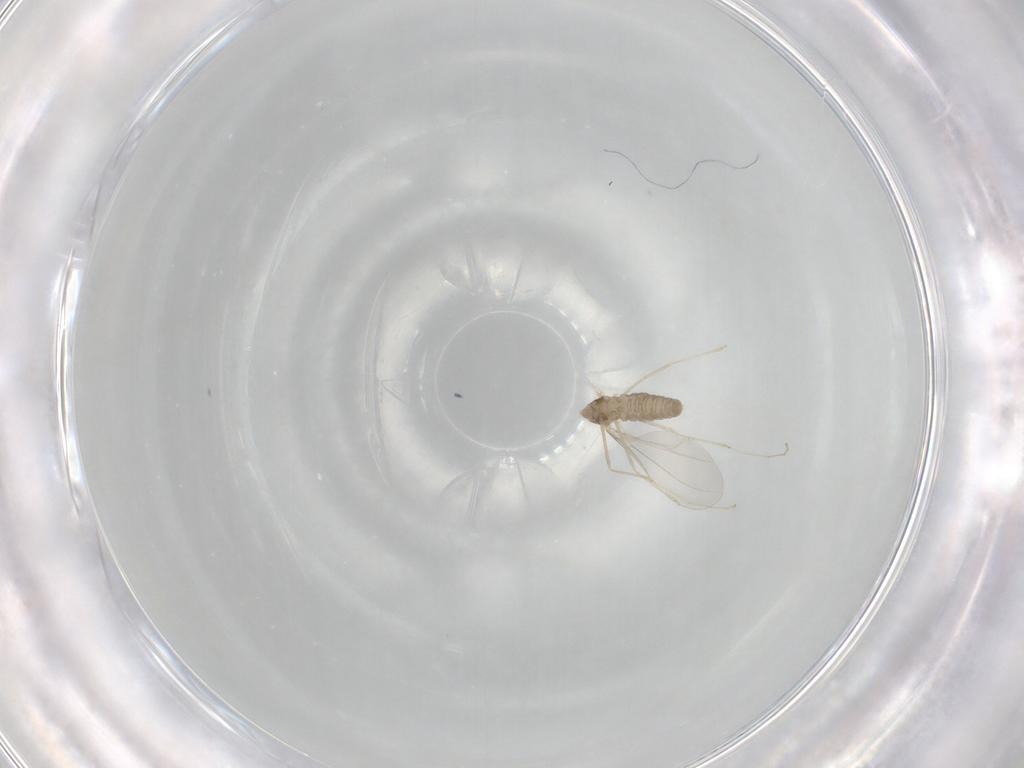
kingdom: Animalia
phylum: Arthropoda
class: Insecta
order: Diptera
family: Cecidomyiidae
